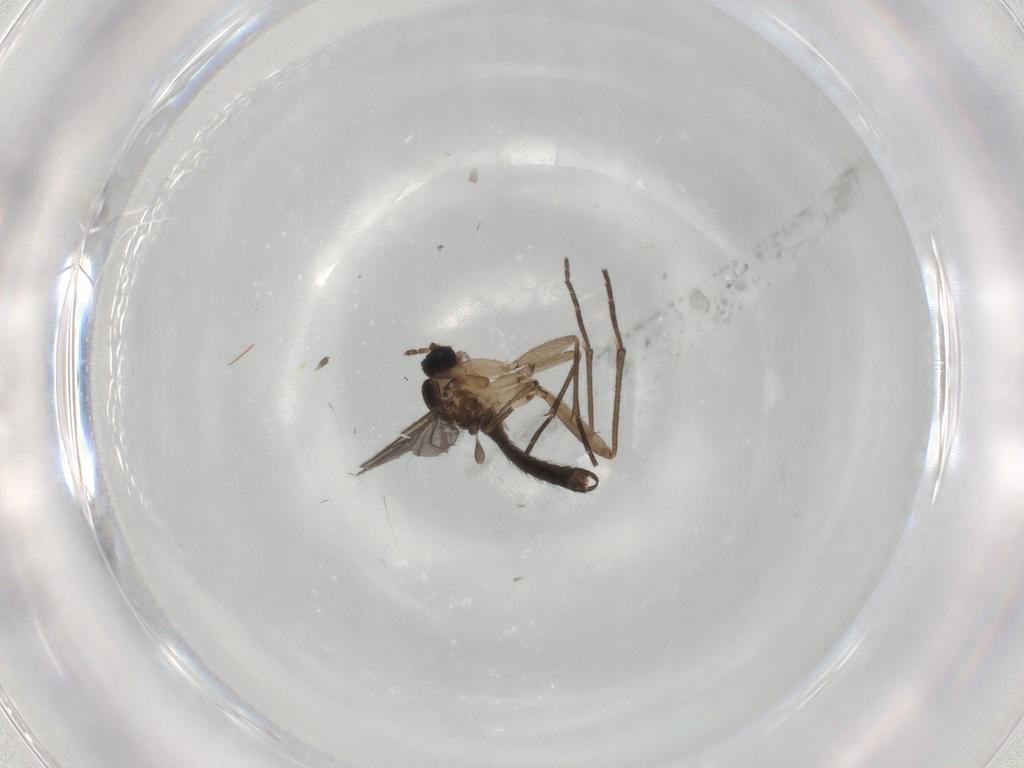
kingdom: Animalia
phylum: Arthropoda
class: Insecta
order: Diptera
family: Sciaridae
